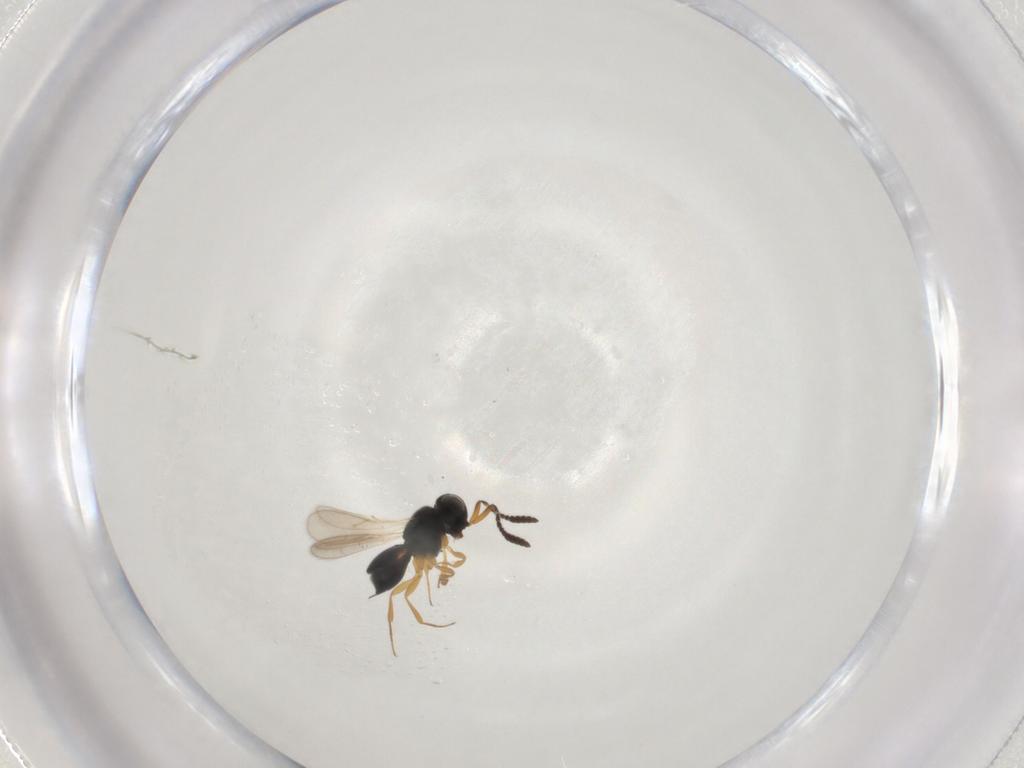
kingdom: Animalia
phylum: Arthropoda
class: Insecta
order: Hymenoptera
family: Scelionidae
